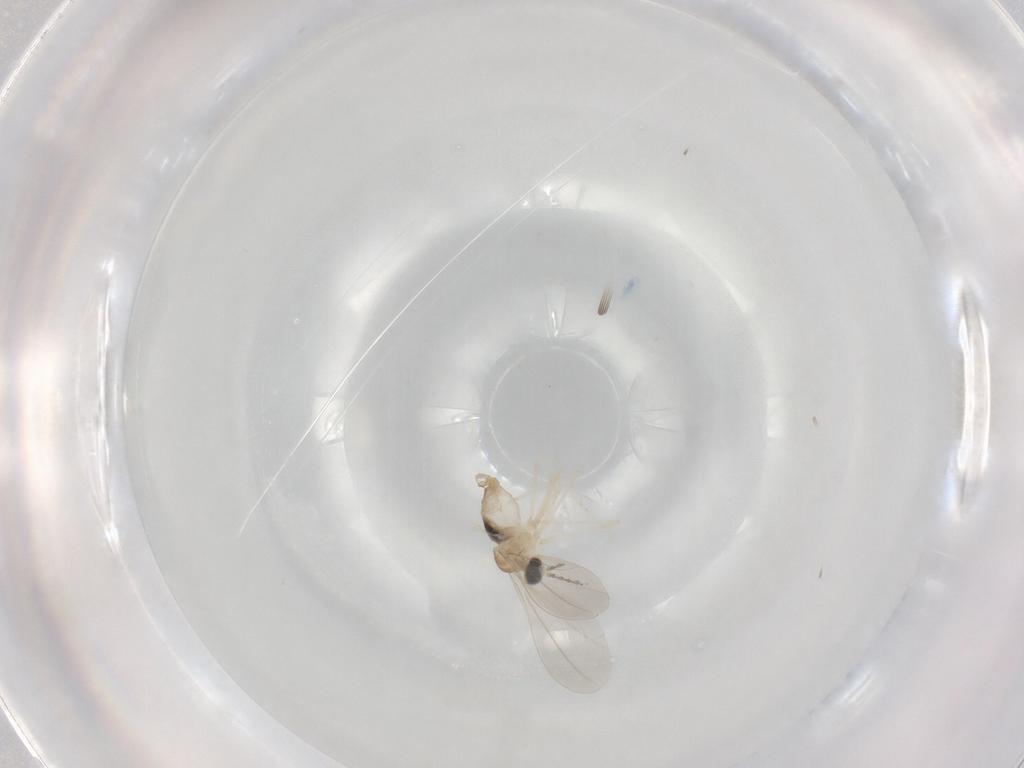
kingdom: Animalia
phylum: Arthropoda
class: Insecta
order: Diptera
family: Cecidomyiidae
